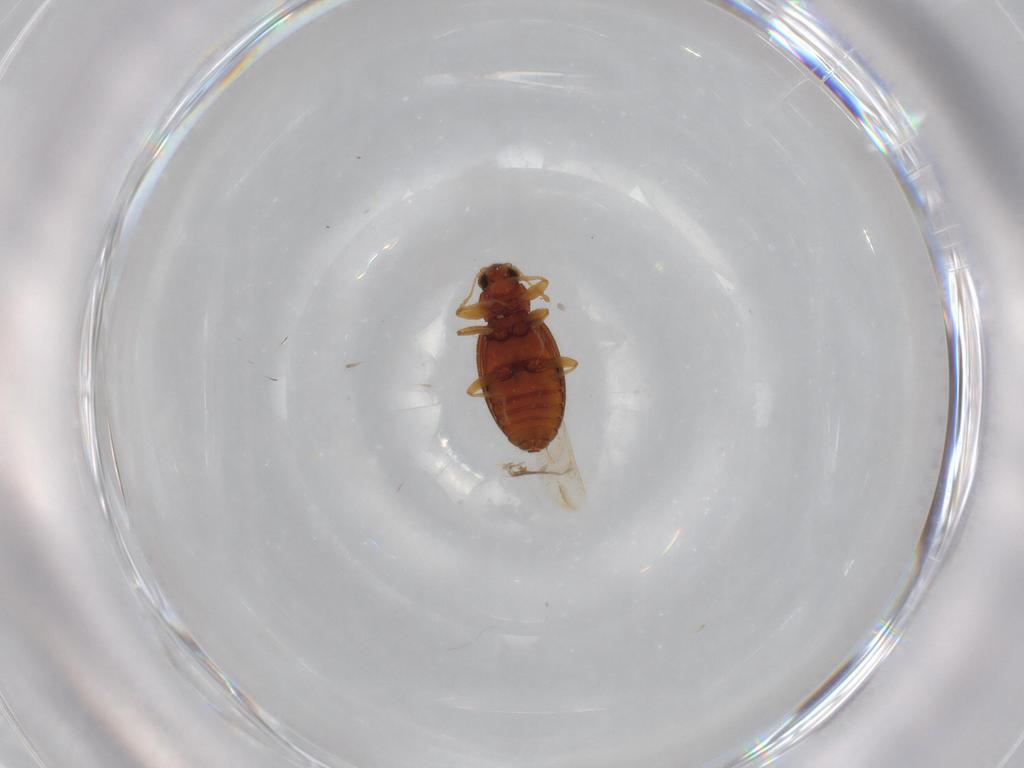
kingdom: Animalia
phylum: Arthropoda
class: Insecta
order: Coleoptera
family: Latridiidae
